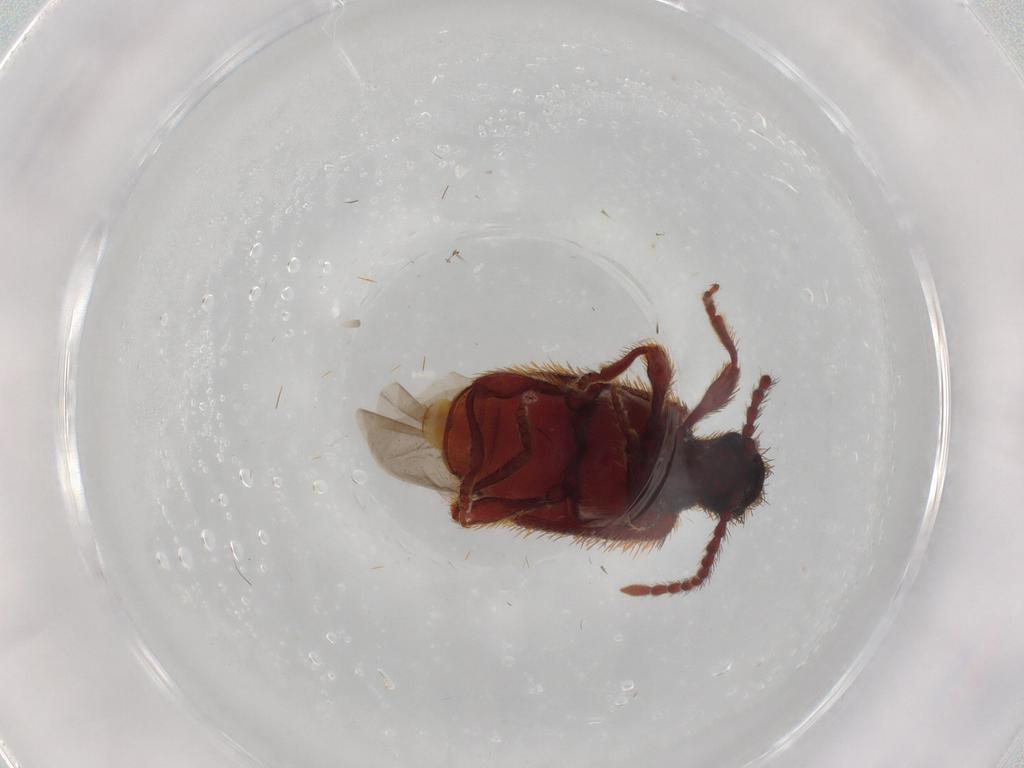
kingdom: Animalia
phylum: Arthropoda
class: Insecta
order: Coleoptera
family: Ptinidae
